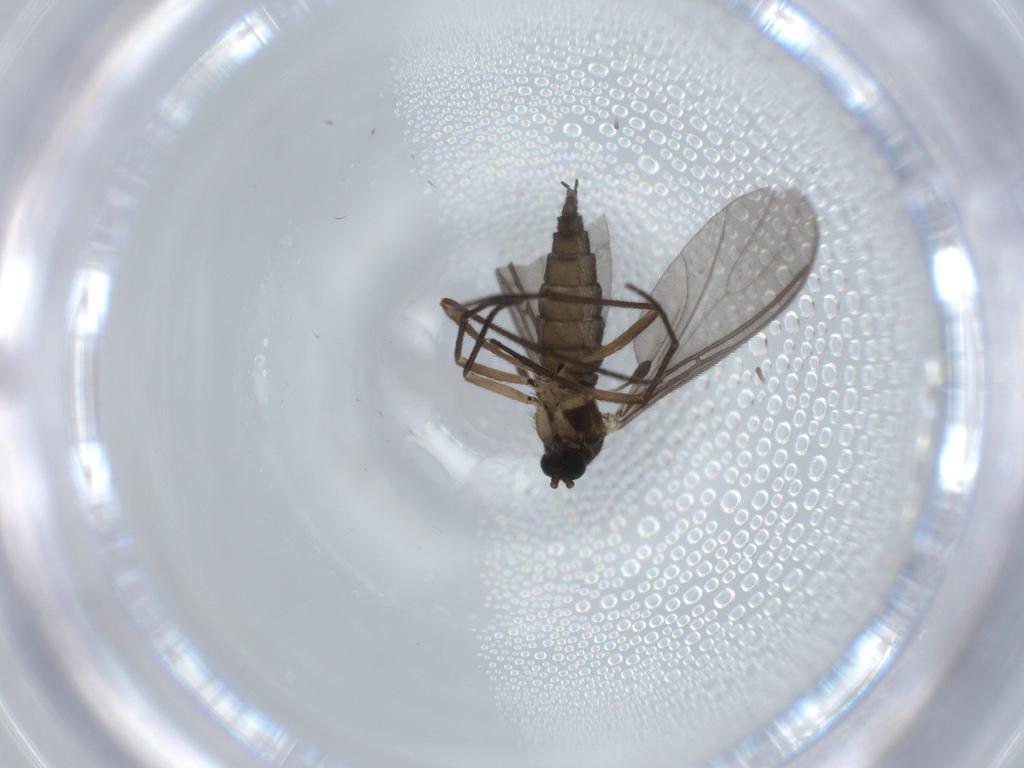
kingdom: Animalia
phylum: Arthropoda
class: Insecta
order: Diptera
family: Sciaridae
